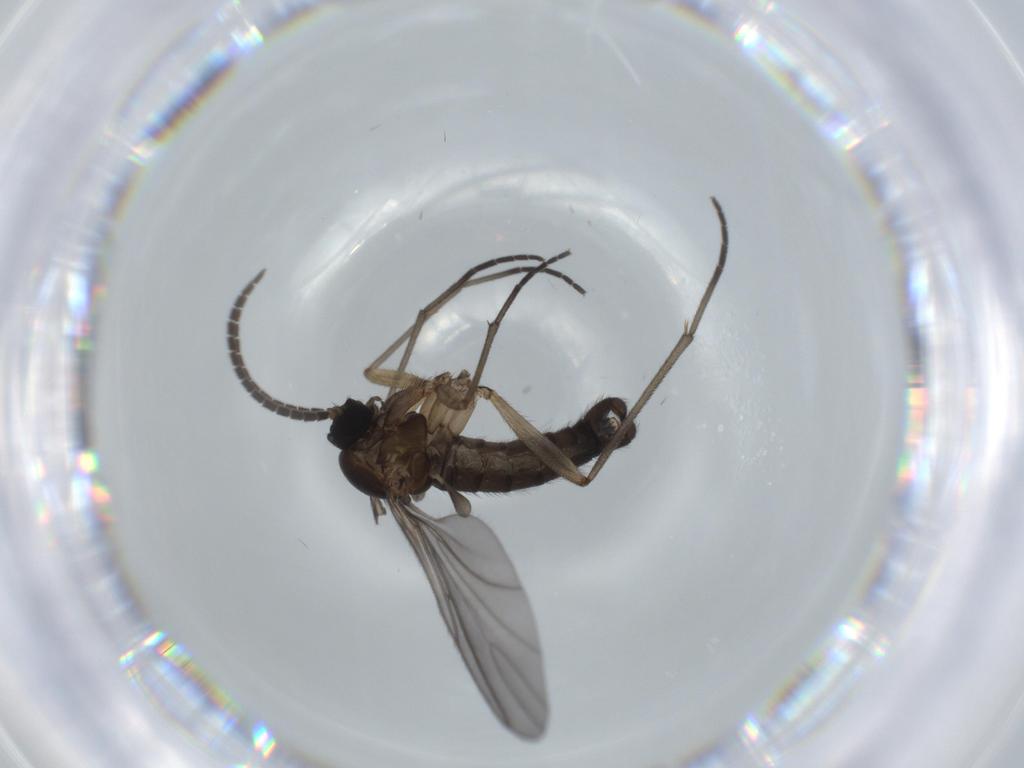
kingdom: Animalia
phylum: Arthropoda
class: Insecta
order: Diptera
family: Sciaridae
